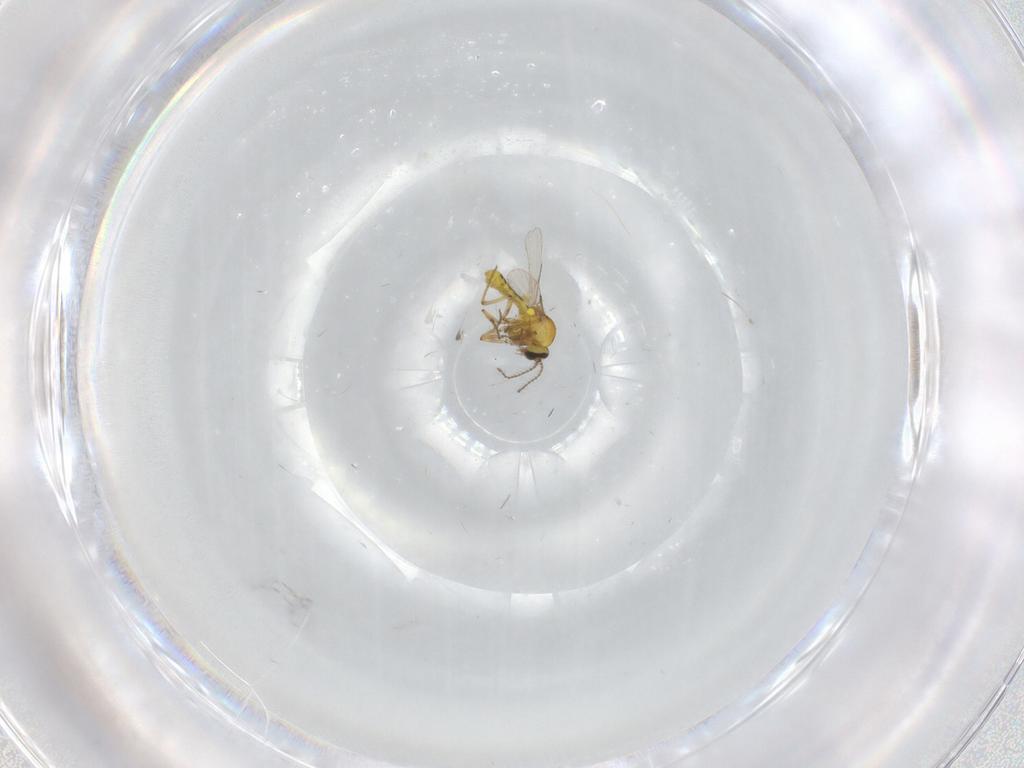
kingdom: Animalia
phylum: Arthropoda
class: Insecta
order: Diptera
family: Ceratopogonidae
